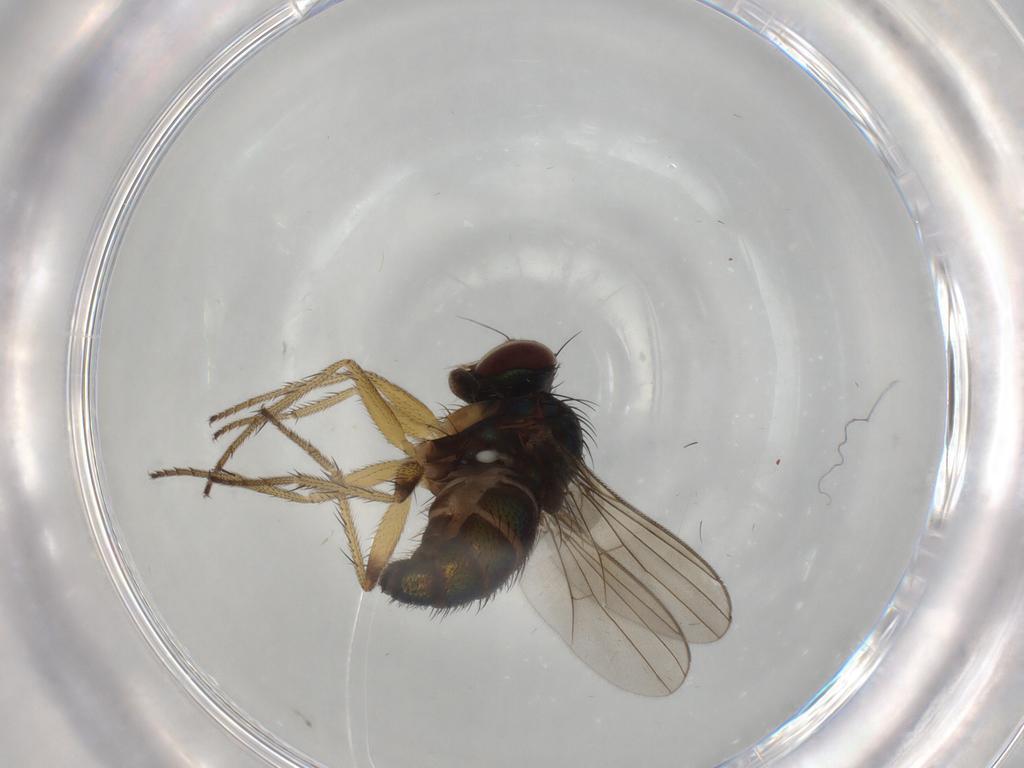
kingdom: Animalia
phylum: Arthropoda
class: Insecta
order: Diptera
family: Dolichopodidae
